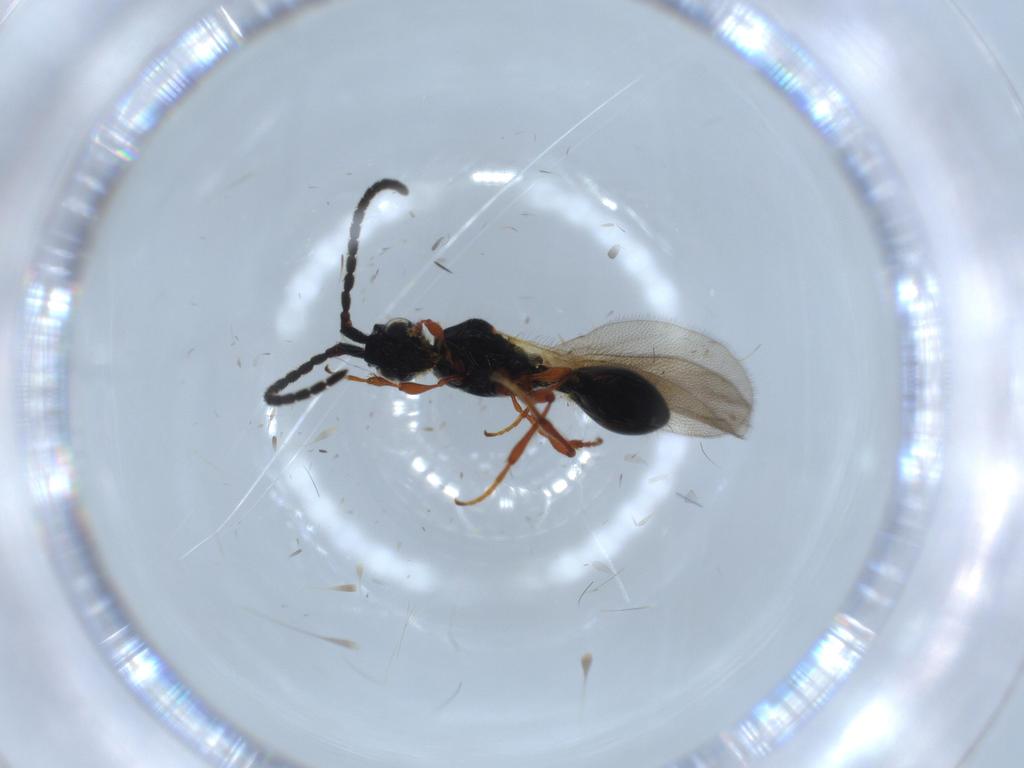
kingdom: Animalia
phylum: Arthropoda
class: Insecta
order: Hymenoptera
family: Diapriidae
